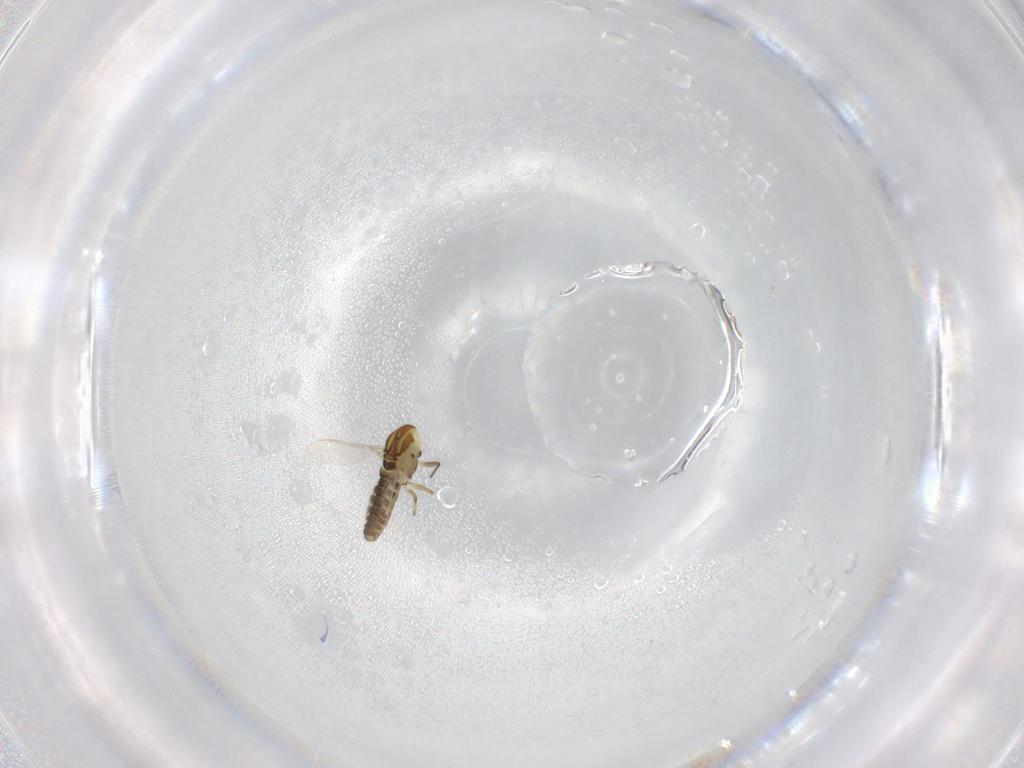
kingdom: Animalia
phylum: Arthropoda
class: Insecta
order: Diptera
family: Chironomidae
